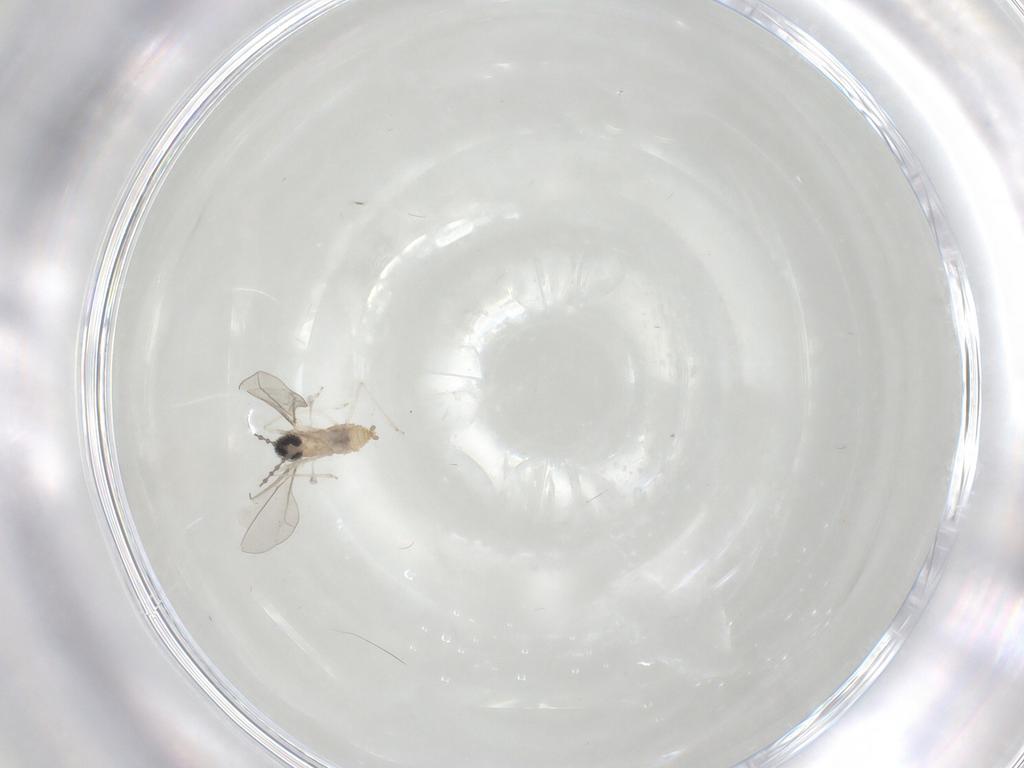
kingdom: Animalia
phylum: Arthropoda
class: Insecta
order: Diptera
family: Cecidomyiidae
